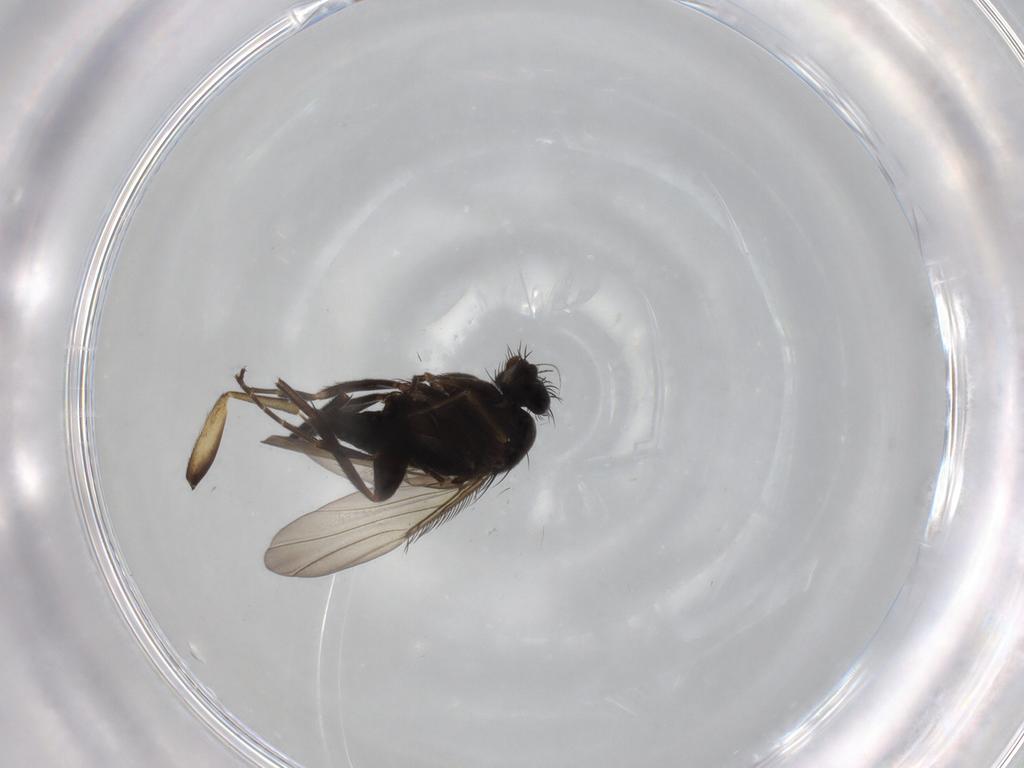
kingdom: Animalia
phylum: Arthropoda
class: Insecta
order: Diptera
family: Phoridae
